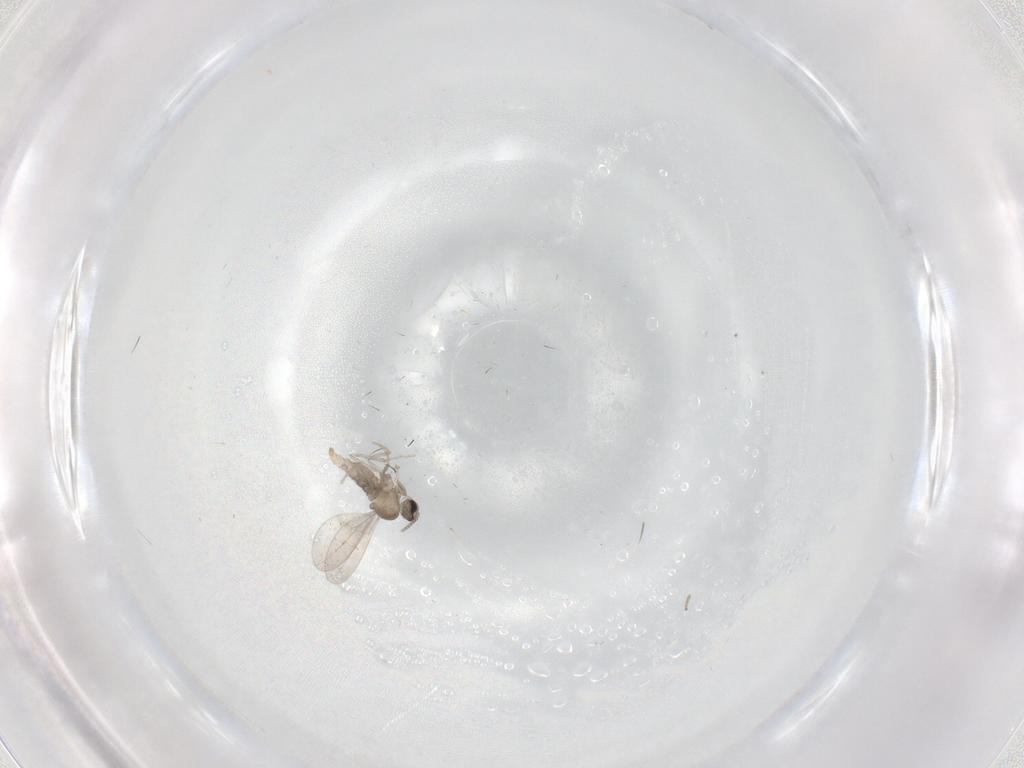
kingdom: Animalia
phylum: Arthropoda
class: Insecta
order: Diptera
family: Cecidomyiidae
